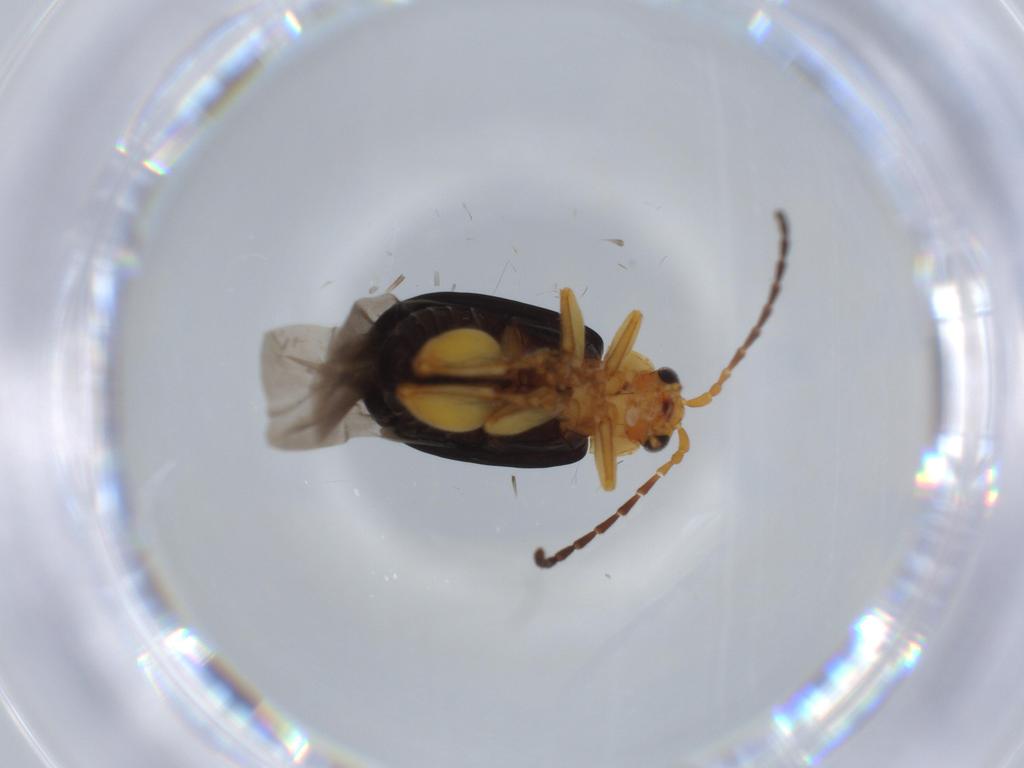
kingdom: Animalia
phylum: Arthropoda
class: Insecta
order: Coleoptera
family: Chrysomelidae
